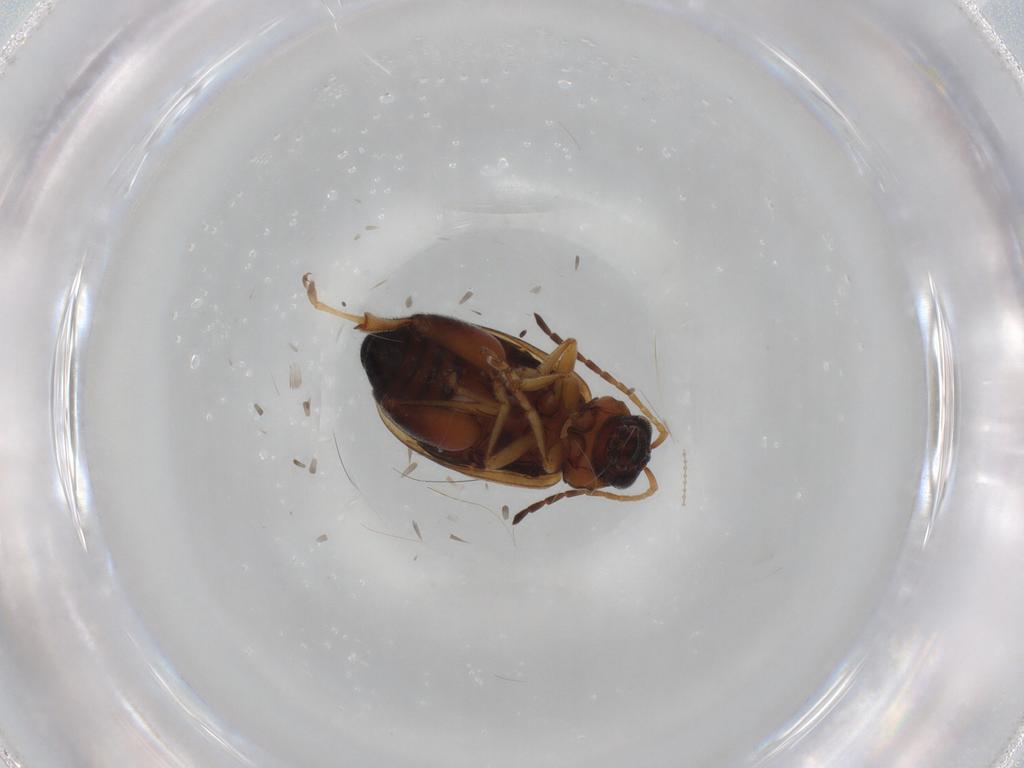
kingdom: Animalia
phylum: Arthropoda
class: Insecta
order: Coleoptera
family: Chrysomelidae
